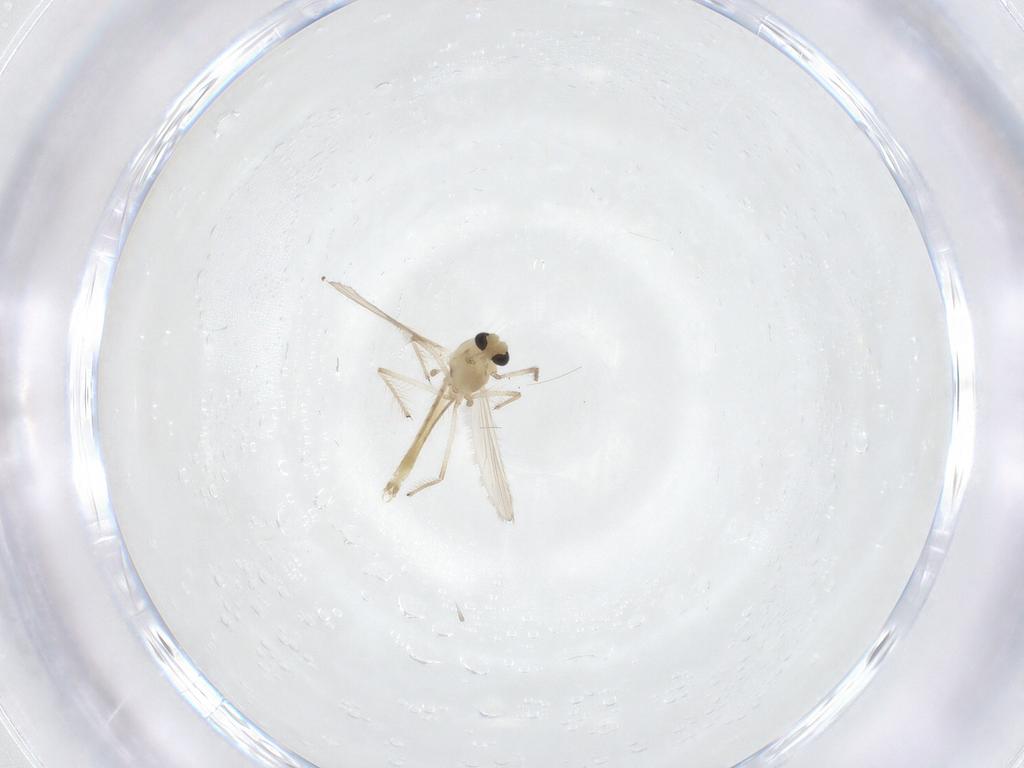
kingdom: Animalia
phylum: Arthropoda
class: Insecta
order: Diptera
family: Chironomidae
